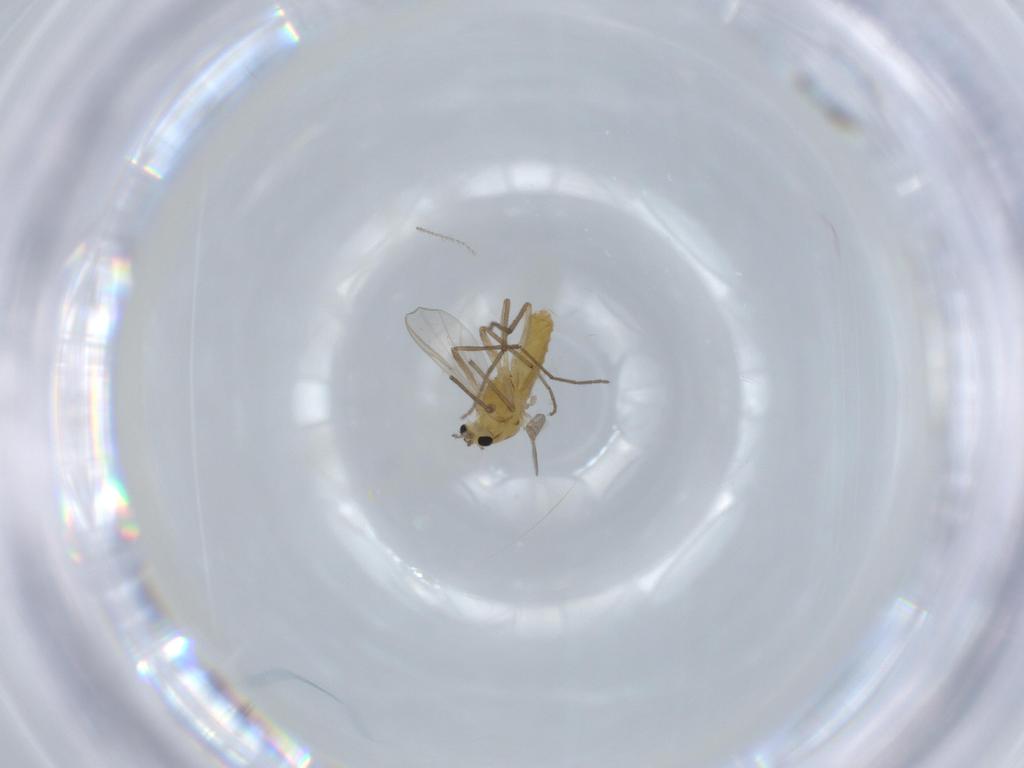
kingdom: Animalia
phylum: Arthropoda
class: Insecta
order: Diptera
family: Chironomidae
